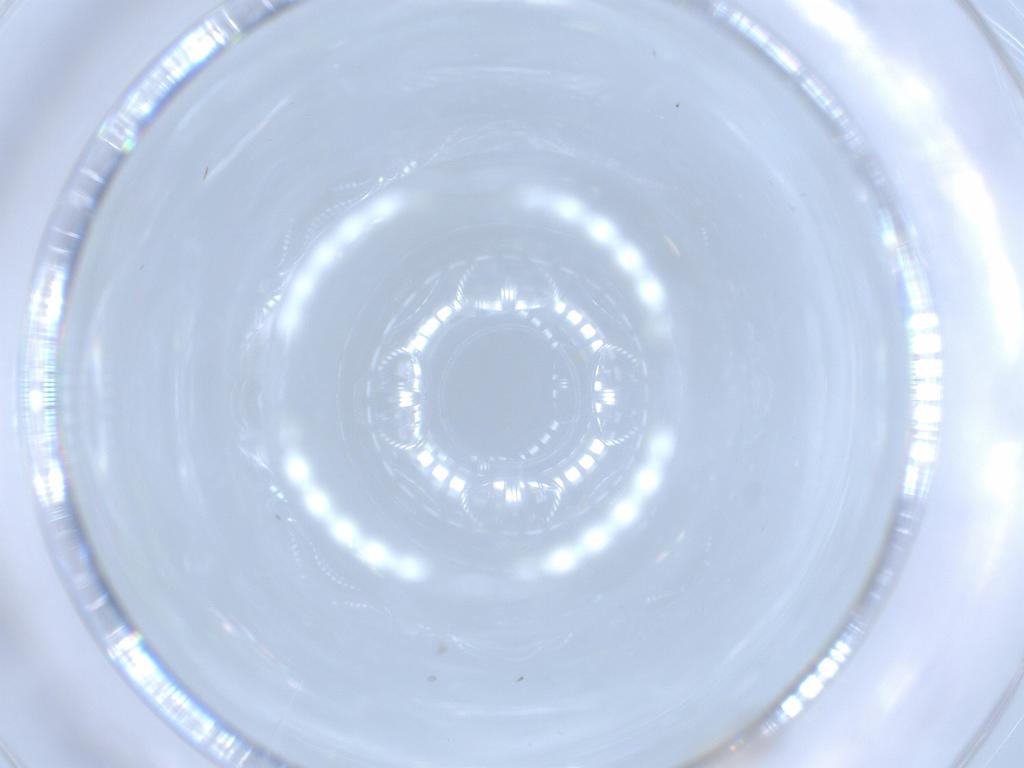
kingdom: Animalia
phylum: Arthropoda
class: Insecta
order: Diptera
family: Cecidomyiidae
